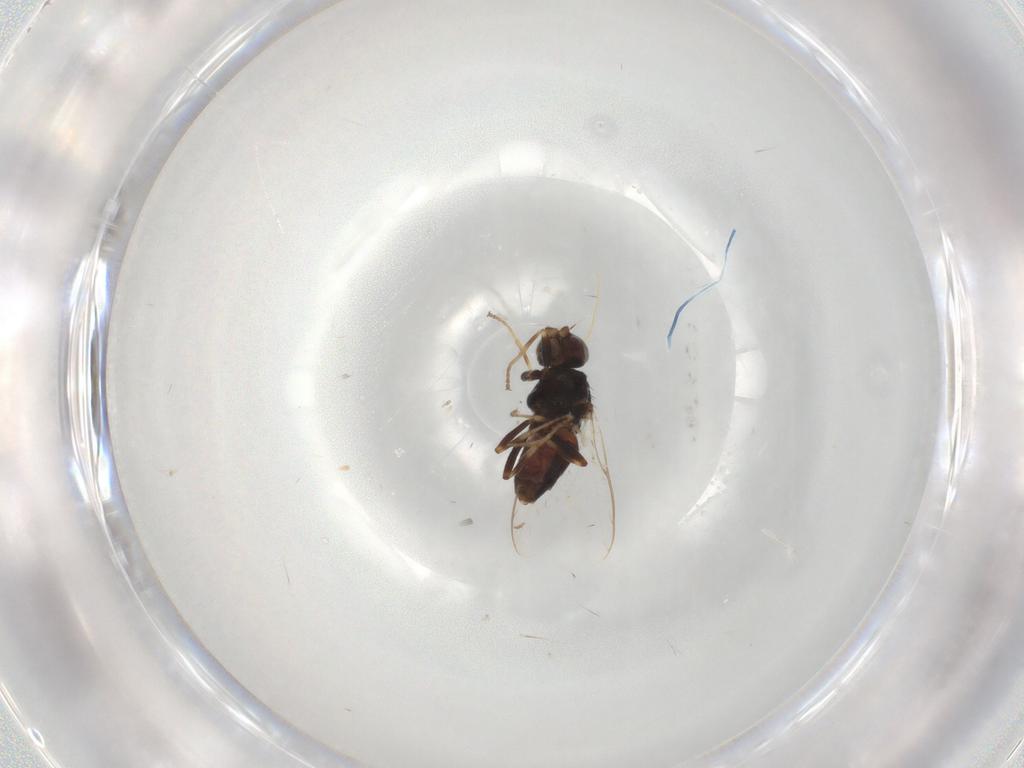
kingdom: Animalia
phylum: Arthropoda
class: Insecta
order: Diptera
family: Chloropidae
